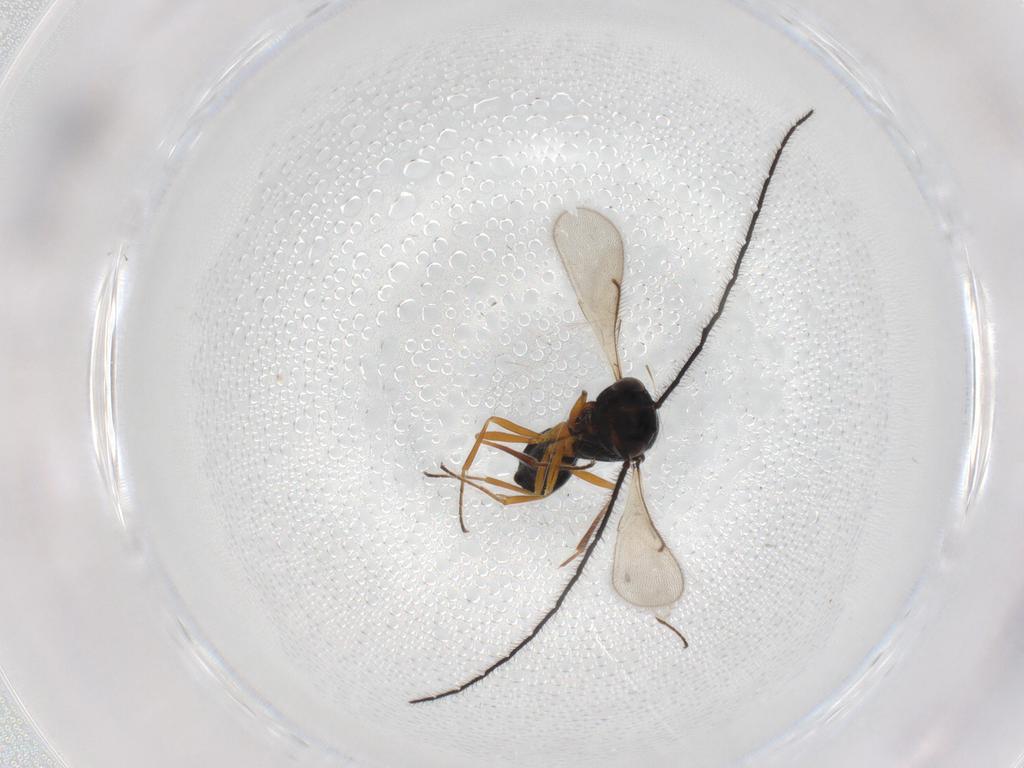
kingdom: Animalia
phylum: Arthropoda
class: Insecta
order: Hymenoptera
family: Scelionidae
